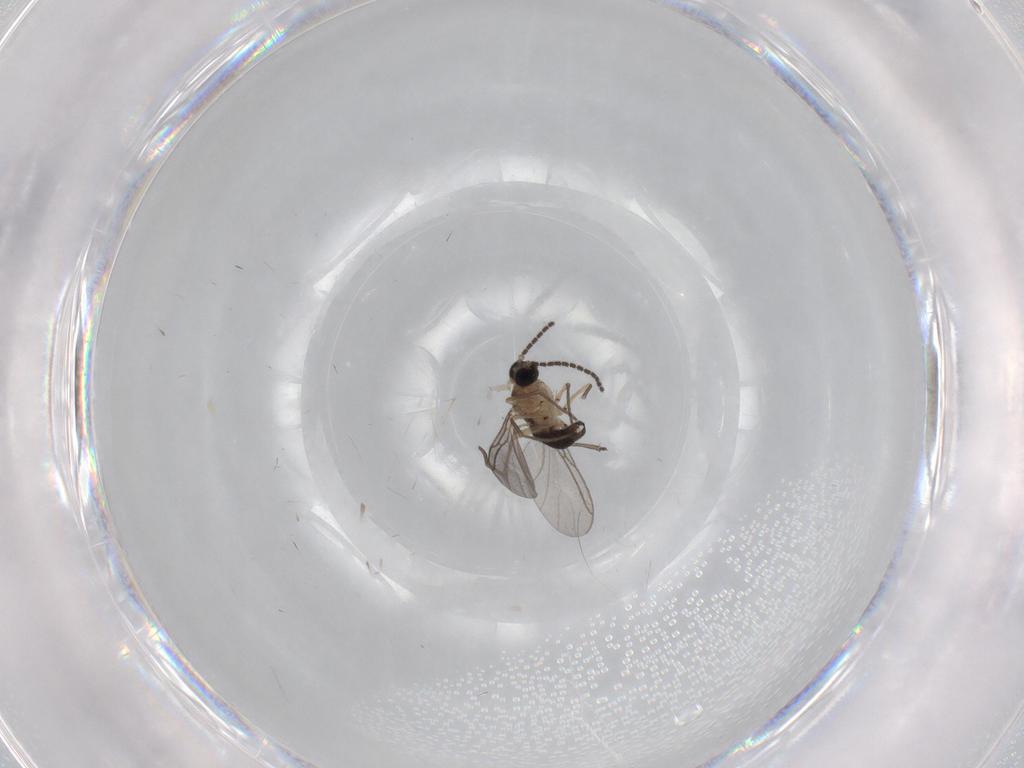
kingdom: Animalia
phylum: Arthropoda
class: Insecta
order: Diptera
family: Sciaridae
